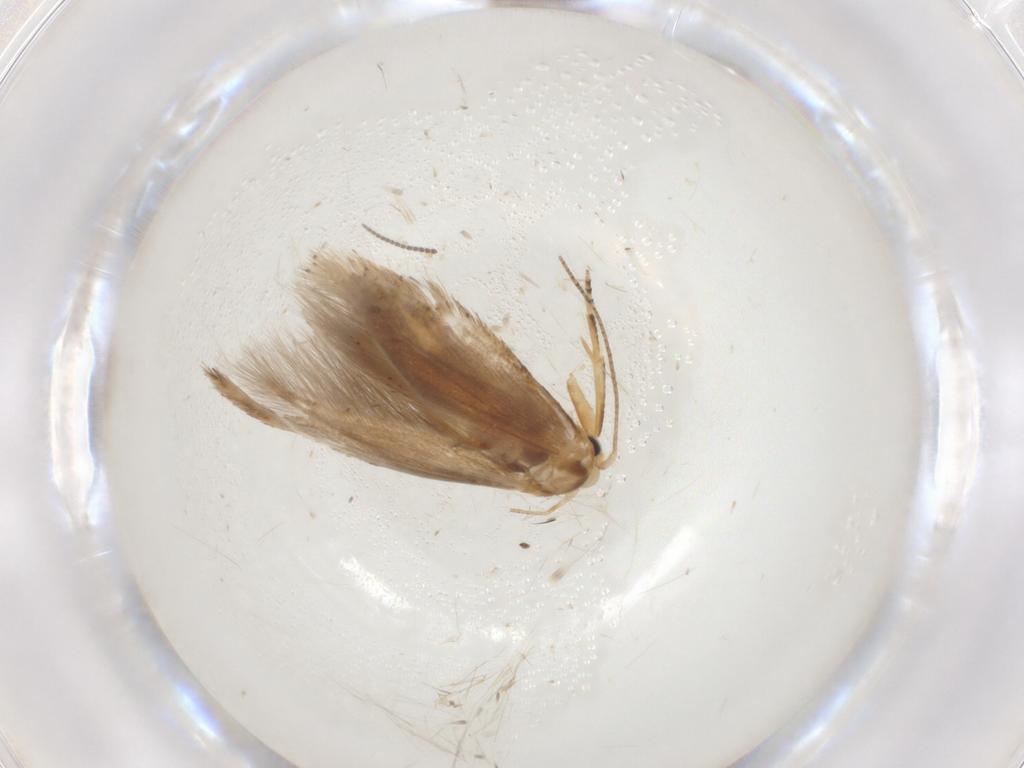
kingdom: Animalia
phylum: Arthropoda
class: Insecta
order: Lepidoptera
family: Bucculatricidae
